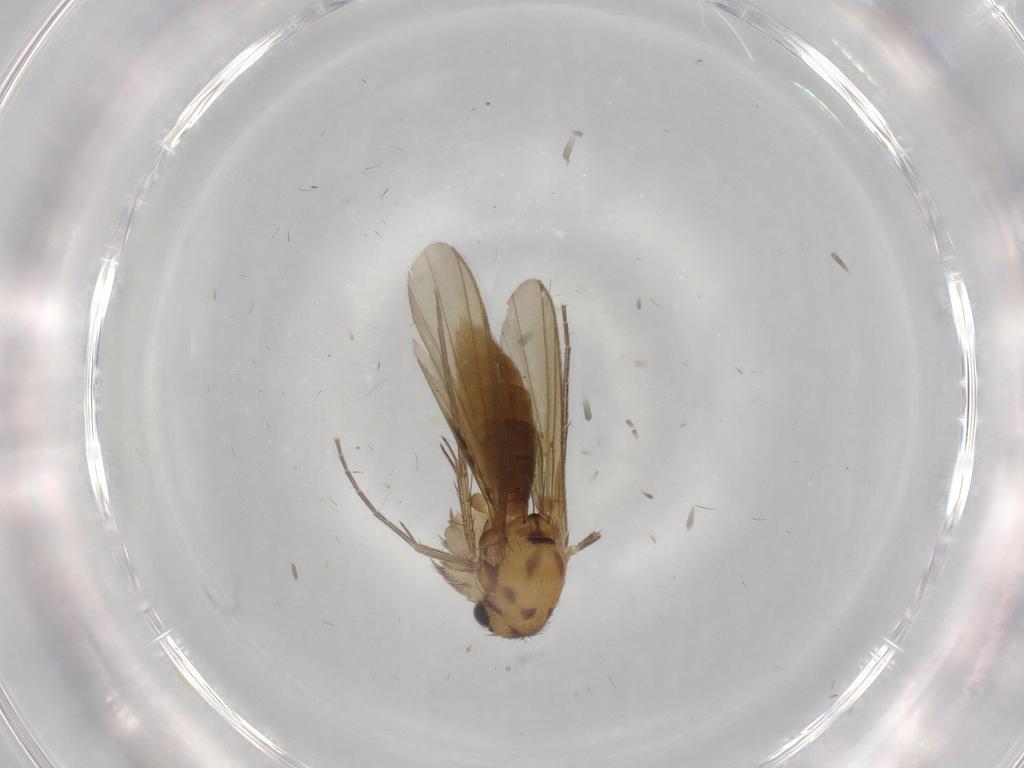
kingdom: Animalia
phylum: Arthropoda
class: Insecta
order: Diptera
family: Mycetophilidae
